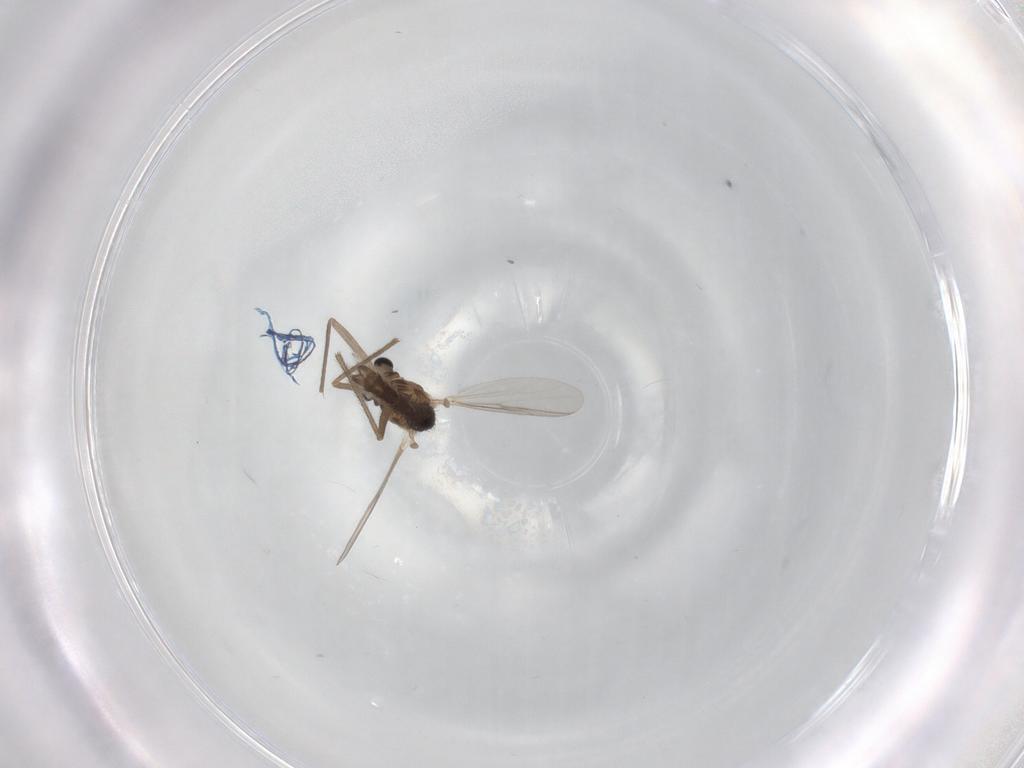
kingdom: Animalia
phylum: Arthropoda
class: Insecta
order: Diptera
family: Chironomidae
